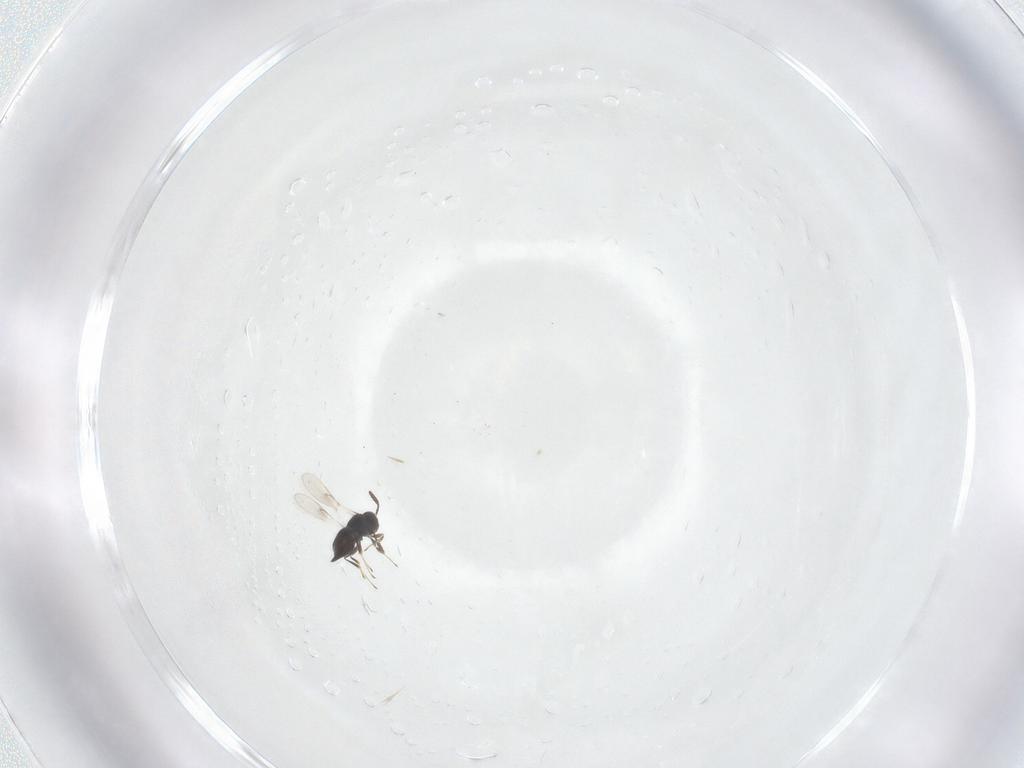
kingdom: Animalia
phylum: Arthropoda
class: Insecta
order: Hymenoptera
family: Scelionidae
